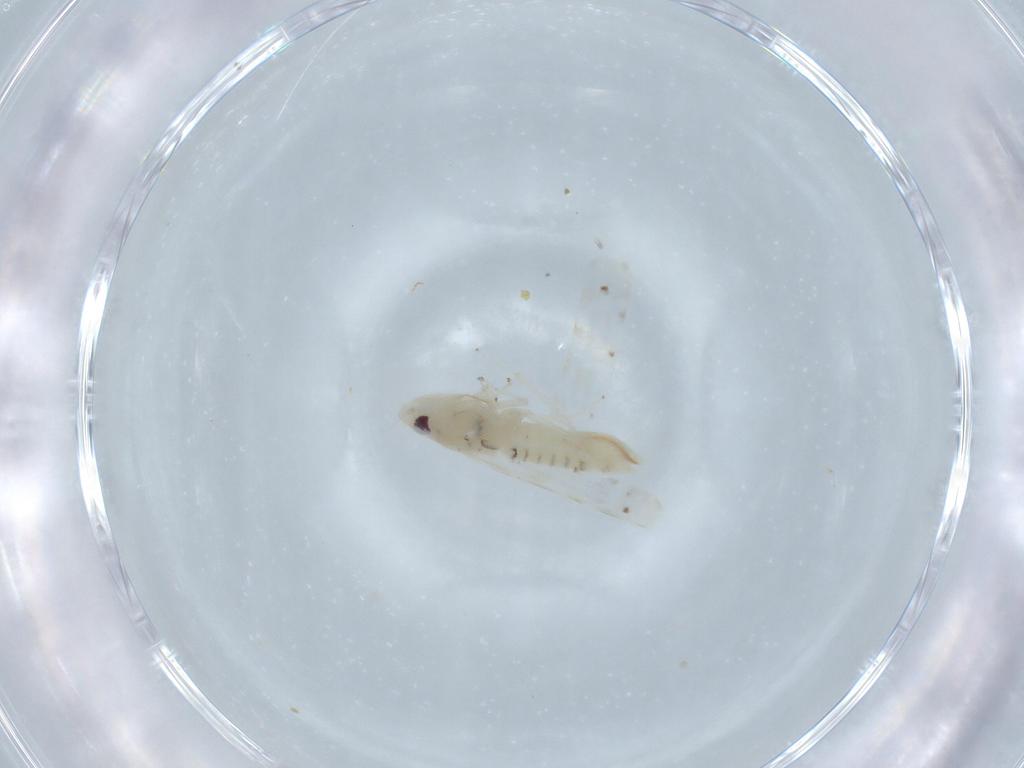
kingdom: Animalia
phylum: Arthropoda
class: Insecta
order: Hemiptera
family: Cicadellidae
